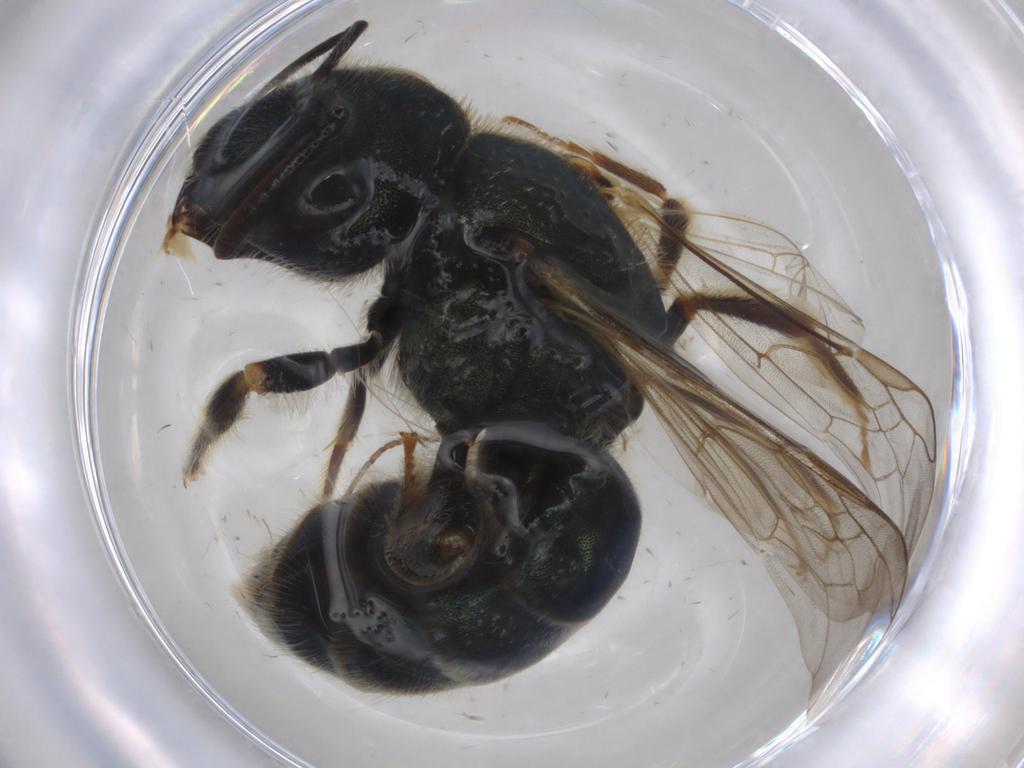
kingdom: Animalia
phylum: Arthropoda
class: Insecta
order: Hymenoptera
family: Halictidae
